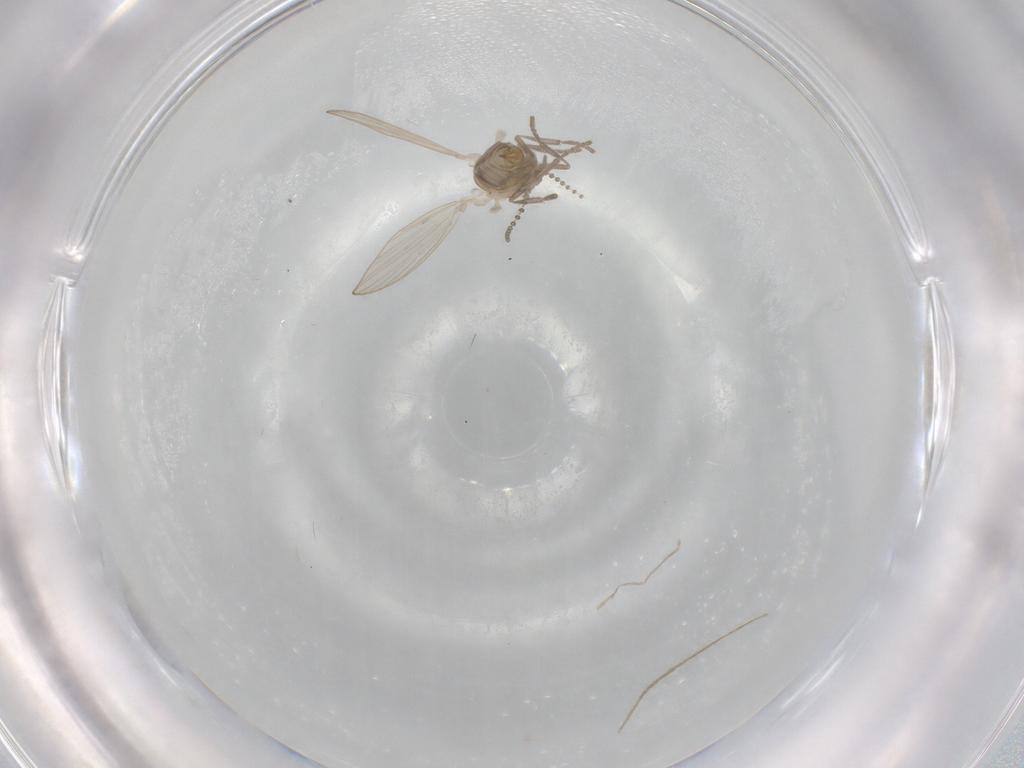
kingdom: Animalia
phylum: Arthropoda
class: Insecta
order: Diptera
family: Psychodidae
